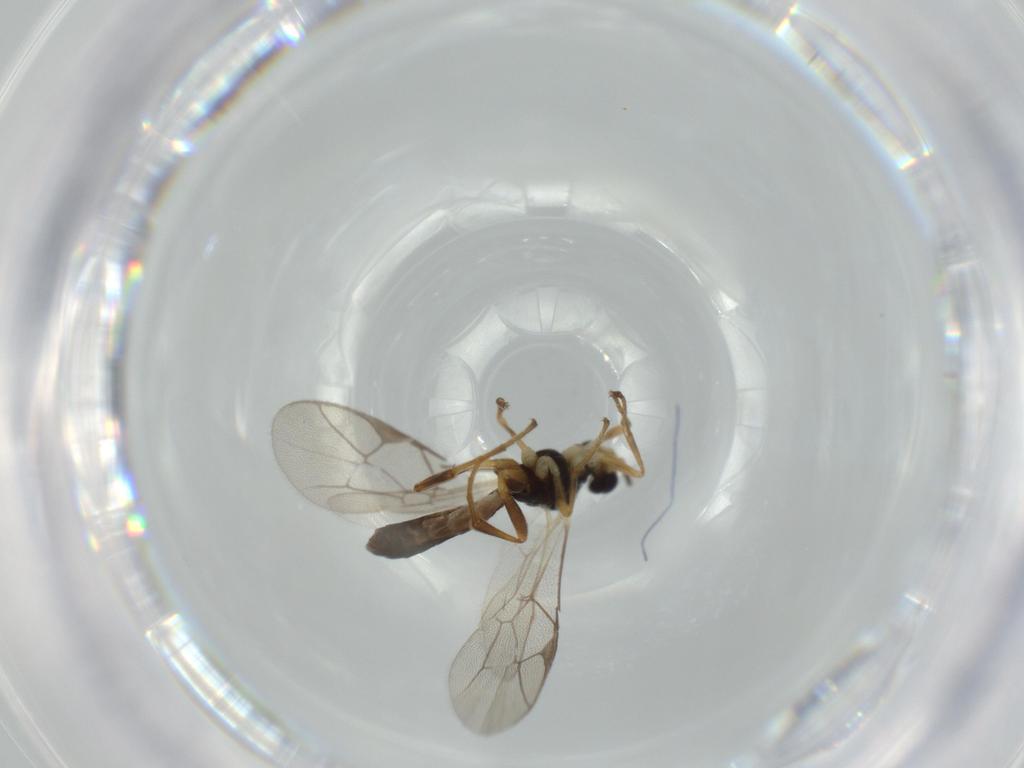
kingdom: Animalia
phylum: Arthropoda
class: Insecta
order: Hymenoptera
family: Ichneumonidae
